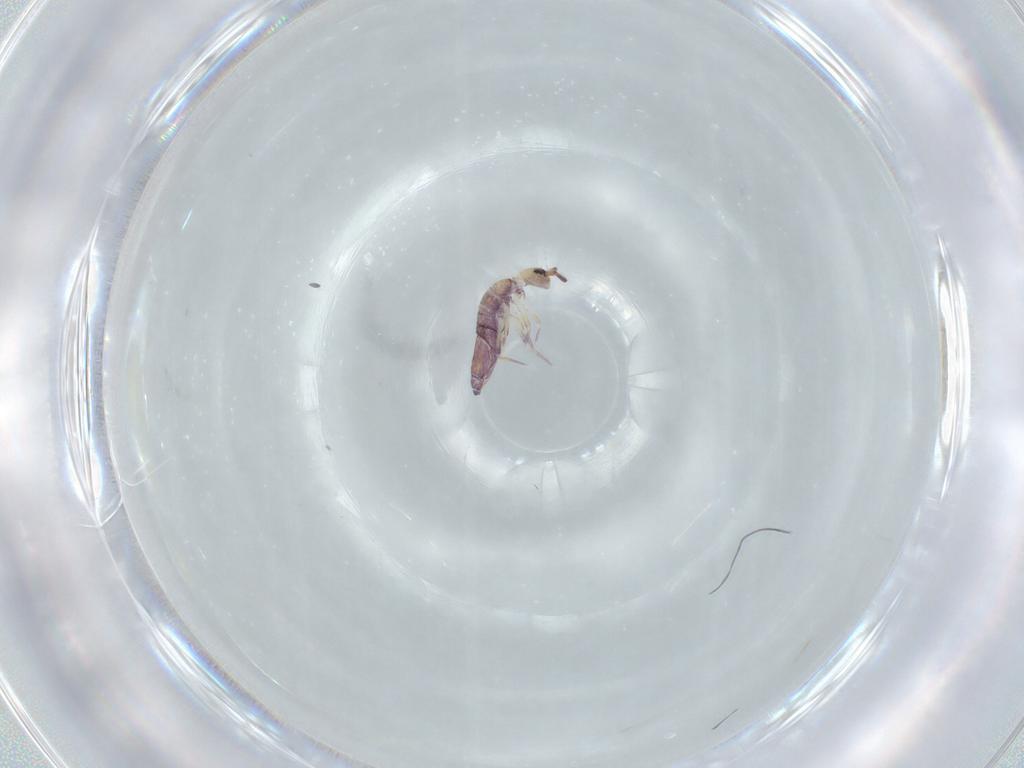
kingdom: Animalia
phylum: Arthropoda
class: Collembola
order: Entomobryomorpha
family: Entomobryidae
